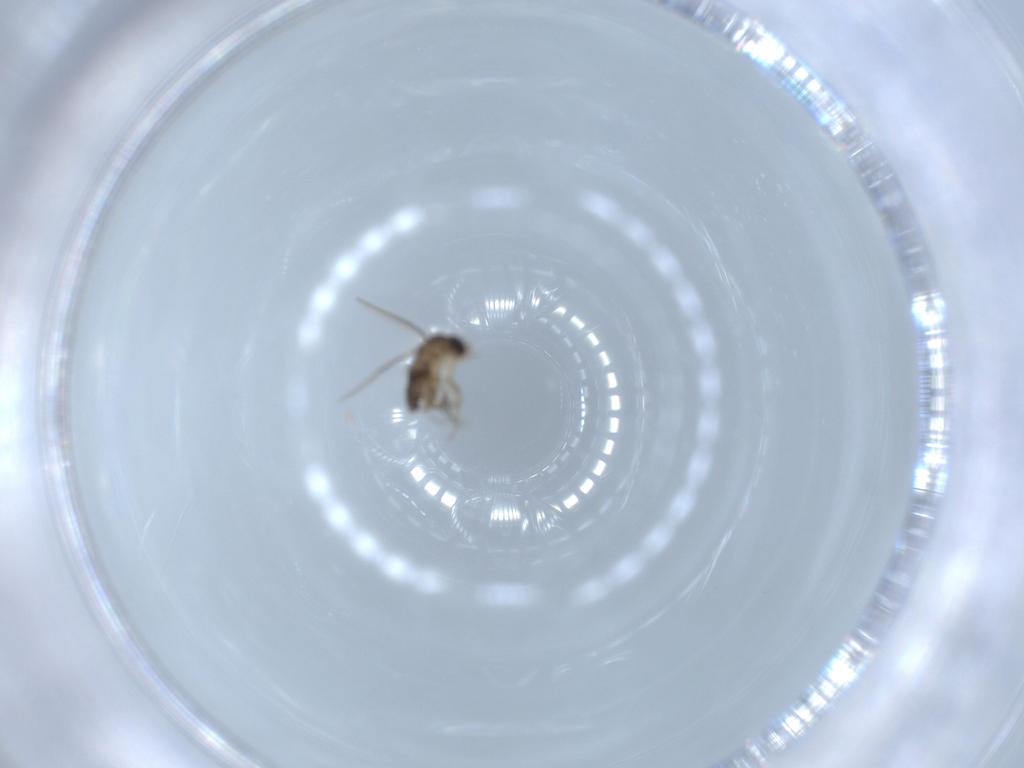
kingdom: Animalia
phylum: Arthropoda
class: Insecta
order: Diptera
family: Phoridae
